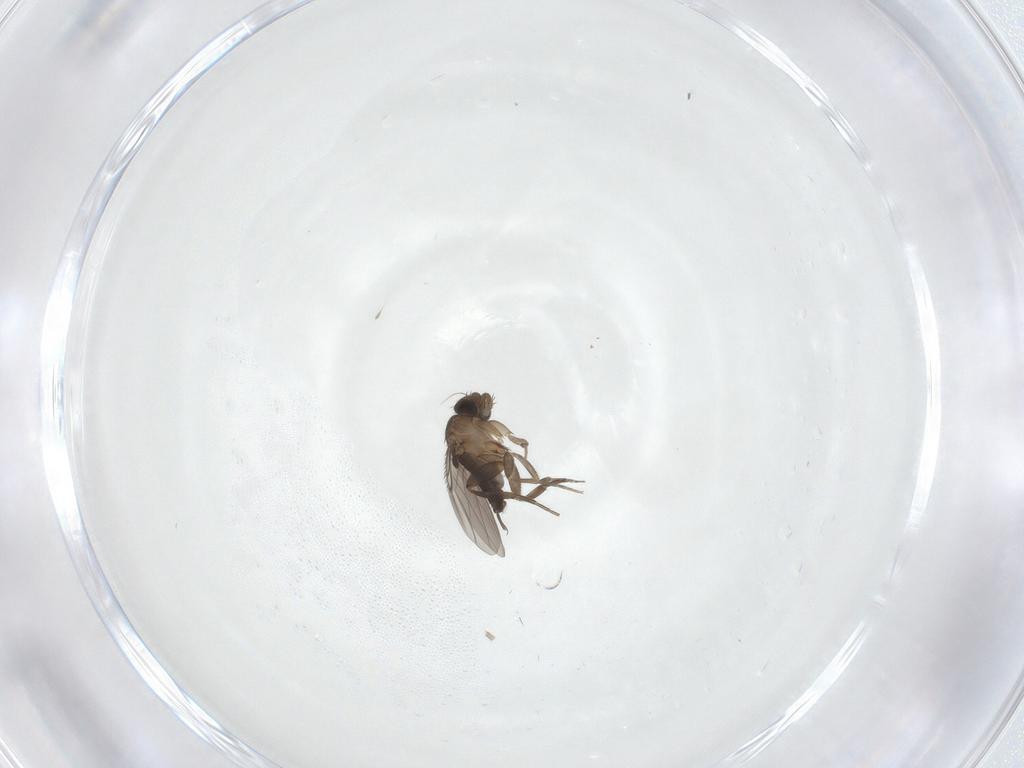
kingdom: Animalia
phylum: Arthropoda
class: Insecta
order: Diptera
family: Phoridae
